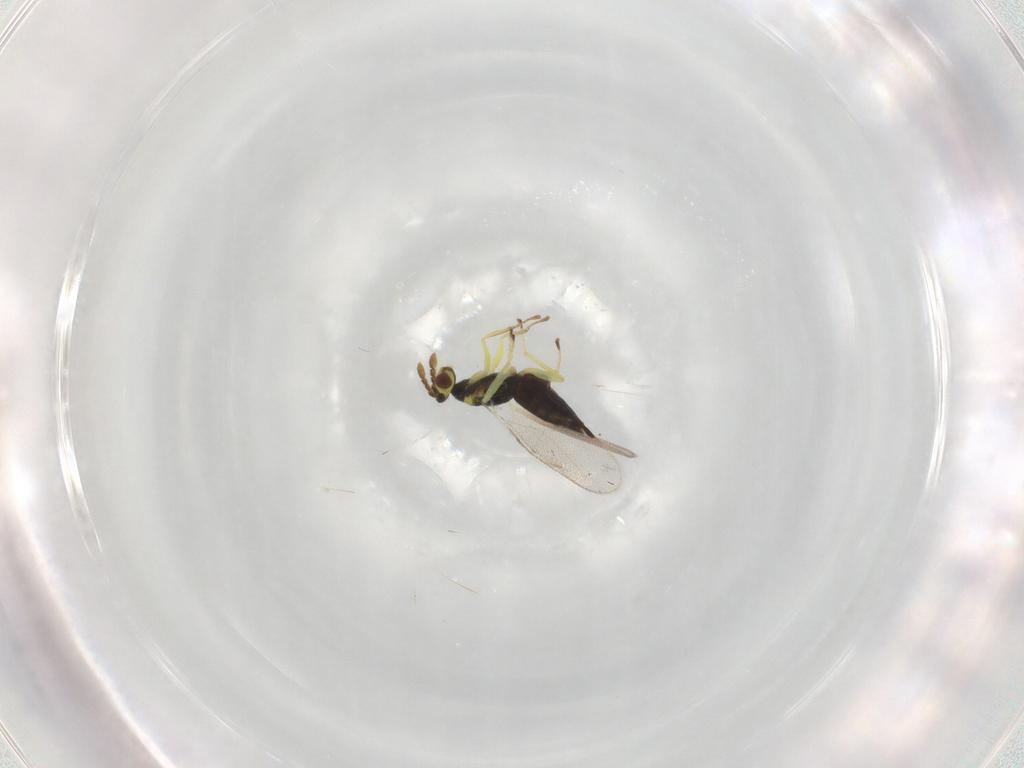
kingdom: Animalia
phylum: Arthropoda
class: Insecta
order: Hymenoptera
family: Eulophidae
